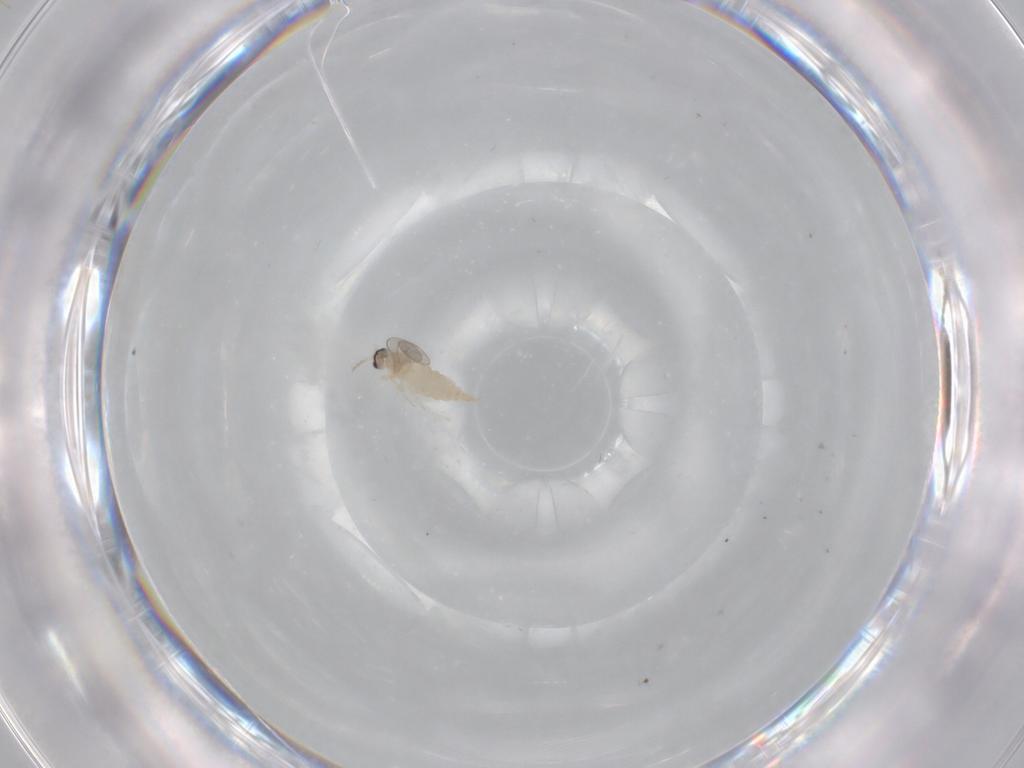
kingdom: Animalia
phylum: Arthropoda
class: Insecta
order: Diptera
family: Cecidomyiidae
